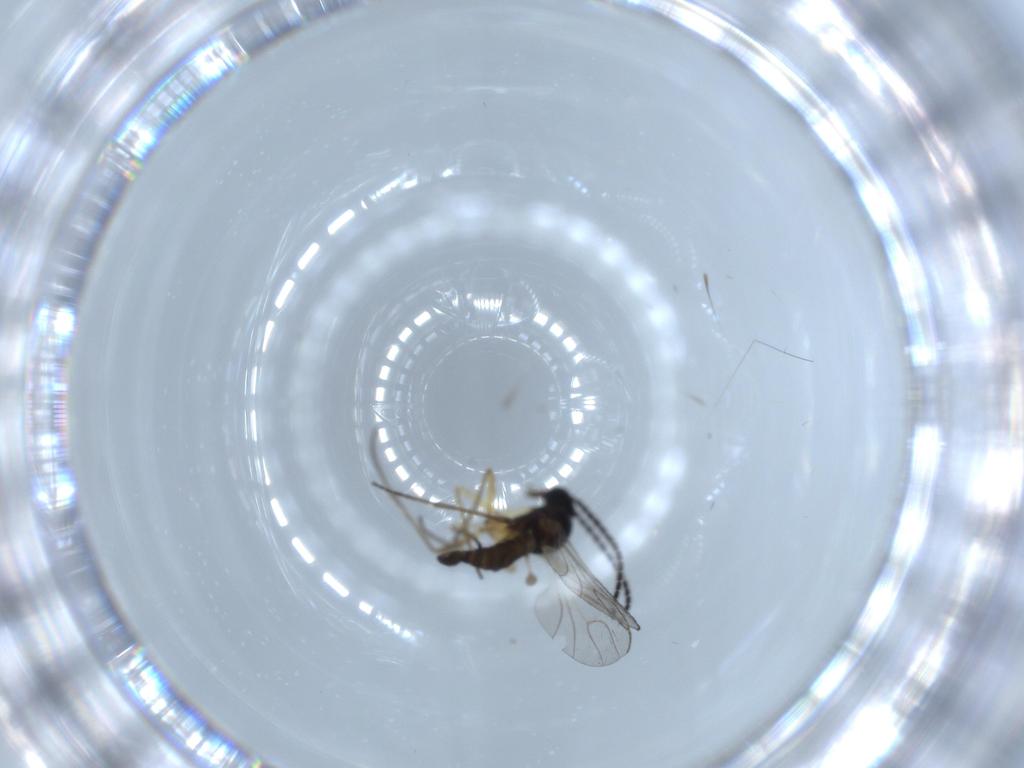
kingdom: Animalia
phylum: Arthropoda
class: Insecta
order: Diptera
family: Sciaridae
